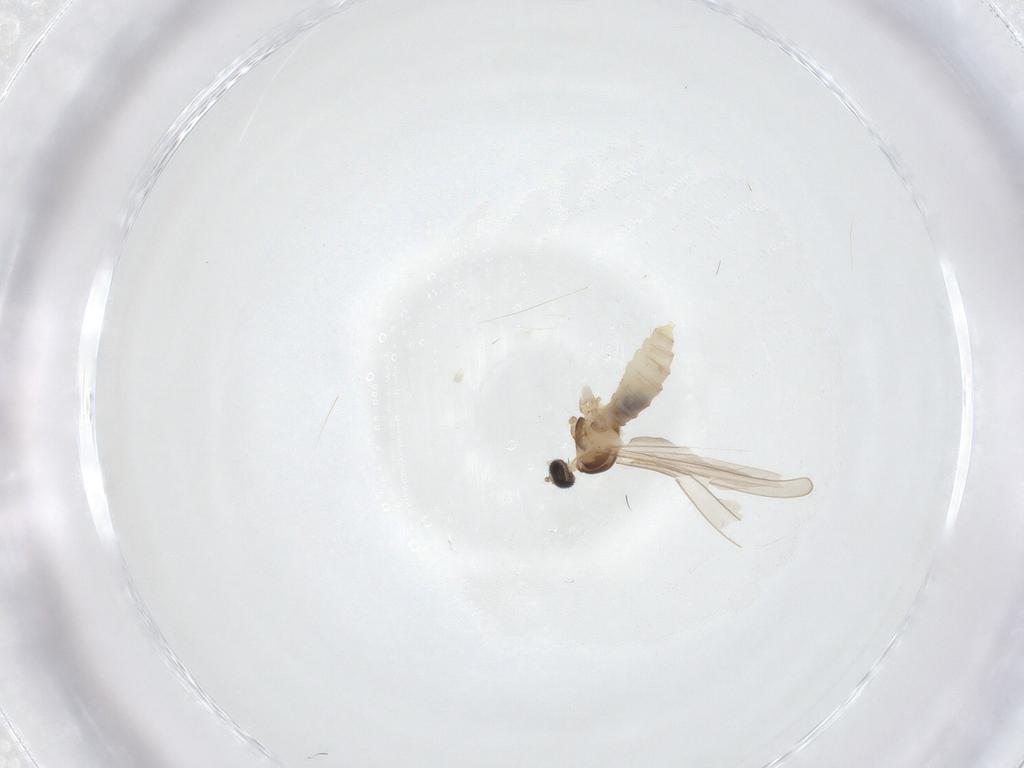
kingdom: Animalia
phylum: Arthropoda
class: Insecta
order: Diptera
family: Cecidomyiidae
